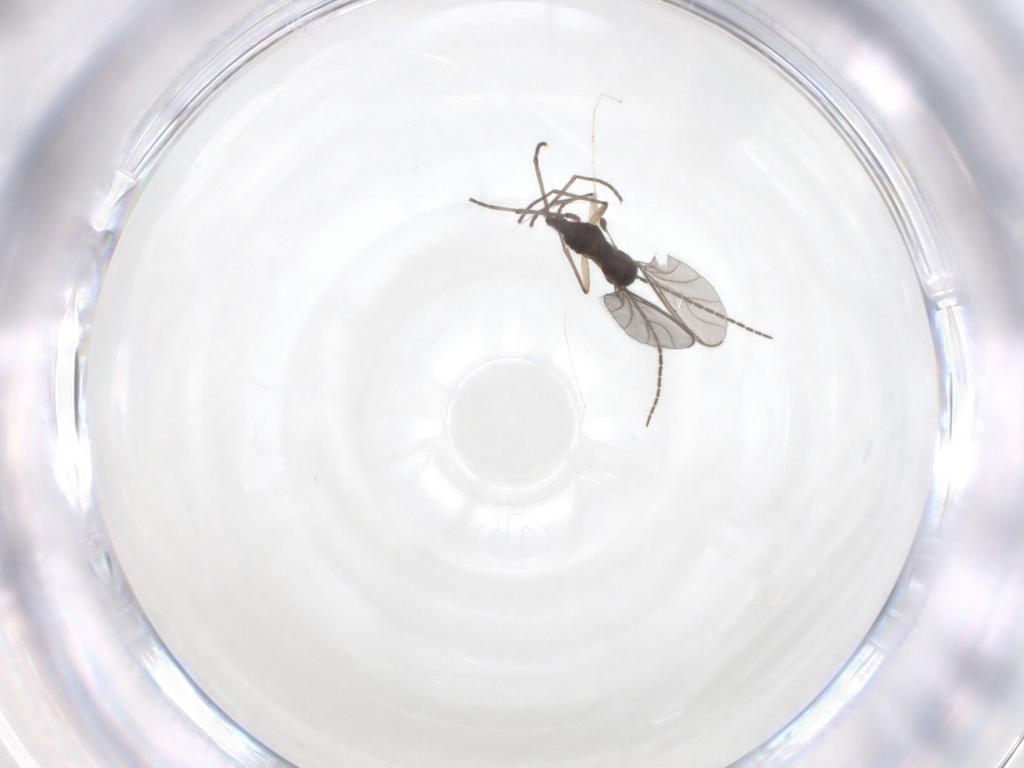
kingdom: Animalia
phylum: Arthropoda
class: Insecta
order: Diptera
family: Sciaridae
